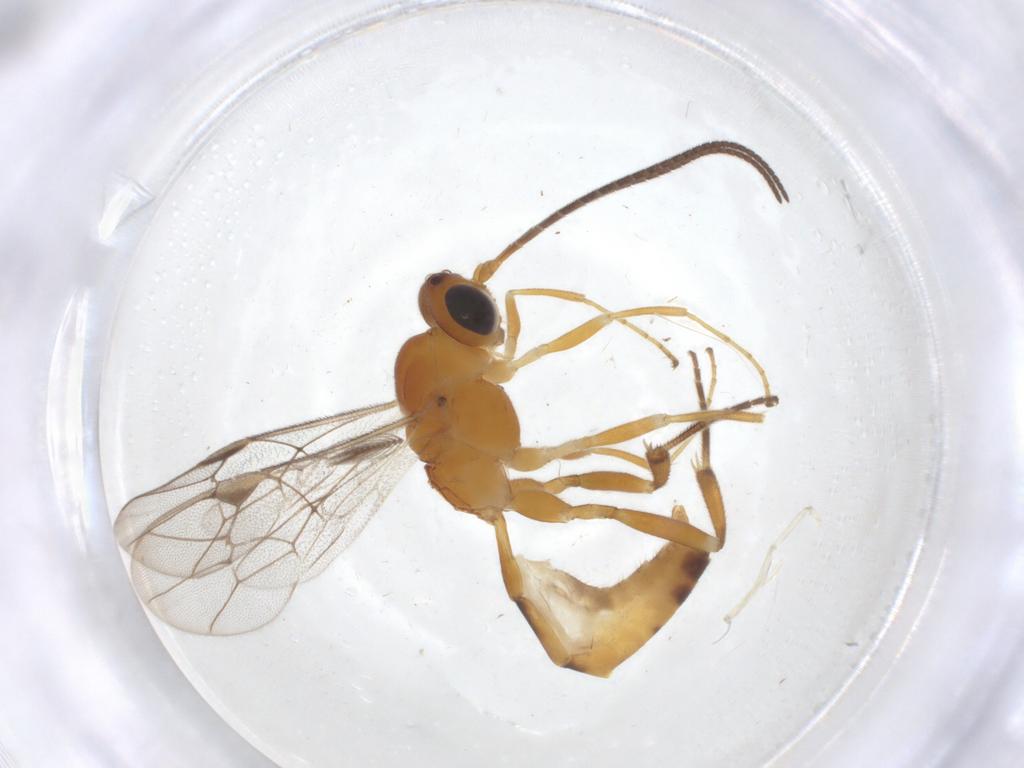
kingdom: Animalia
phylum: Arthropoda
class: Insecta
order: Hymenoptera
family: Ichneumonidae
